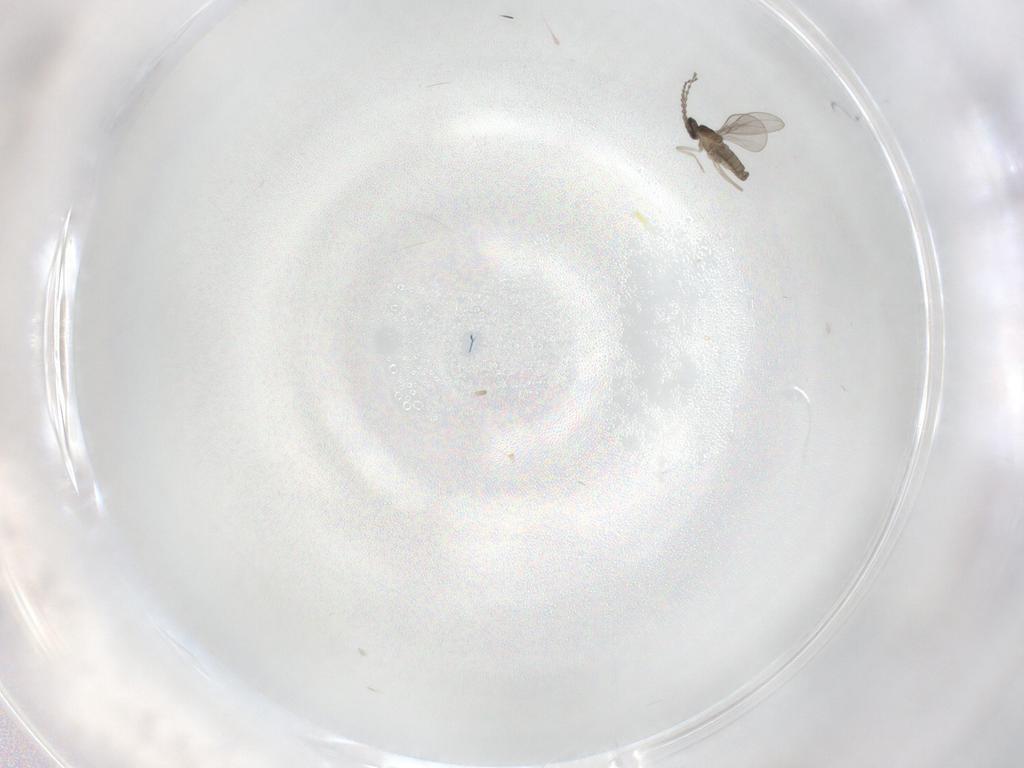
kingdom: Animalia
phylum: Arthropoda
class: Insecta
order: Diptera
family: Cecidomyiidae
